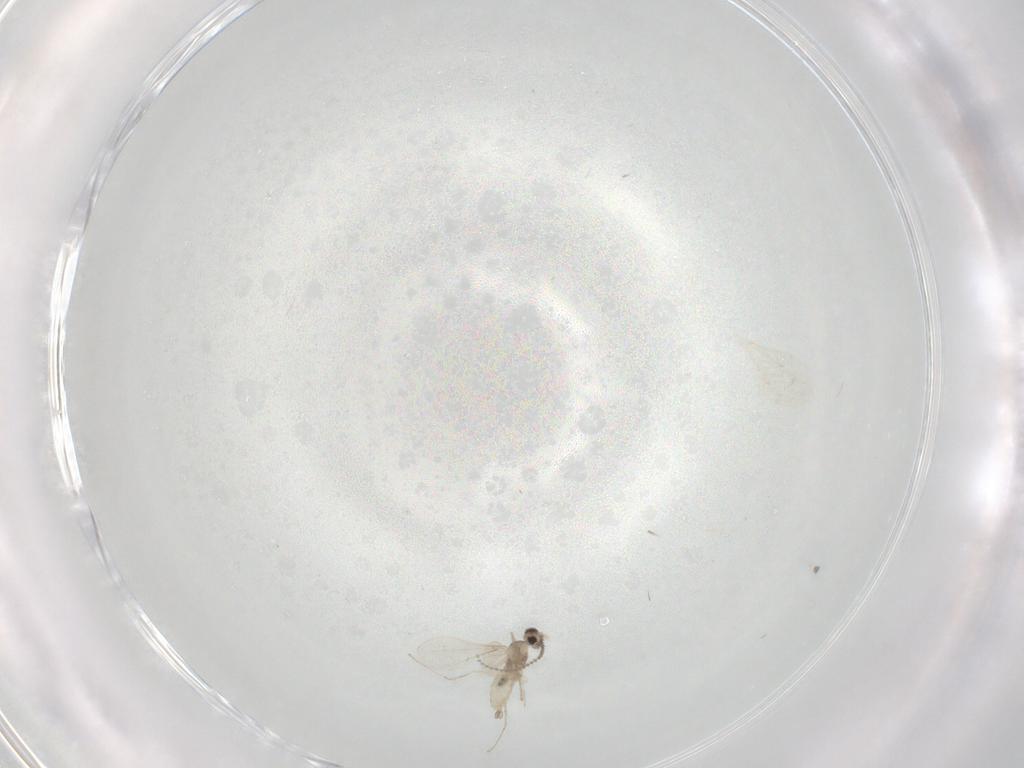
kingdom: Animalia
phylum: Arthropoda
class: Insecta
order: Diptera
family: Cecidomyiidae
